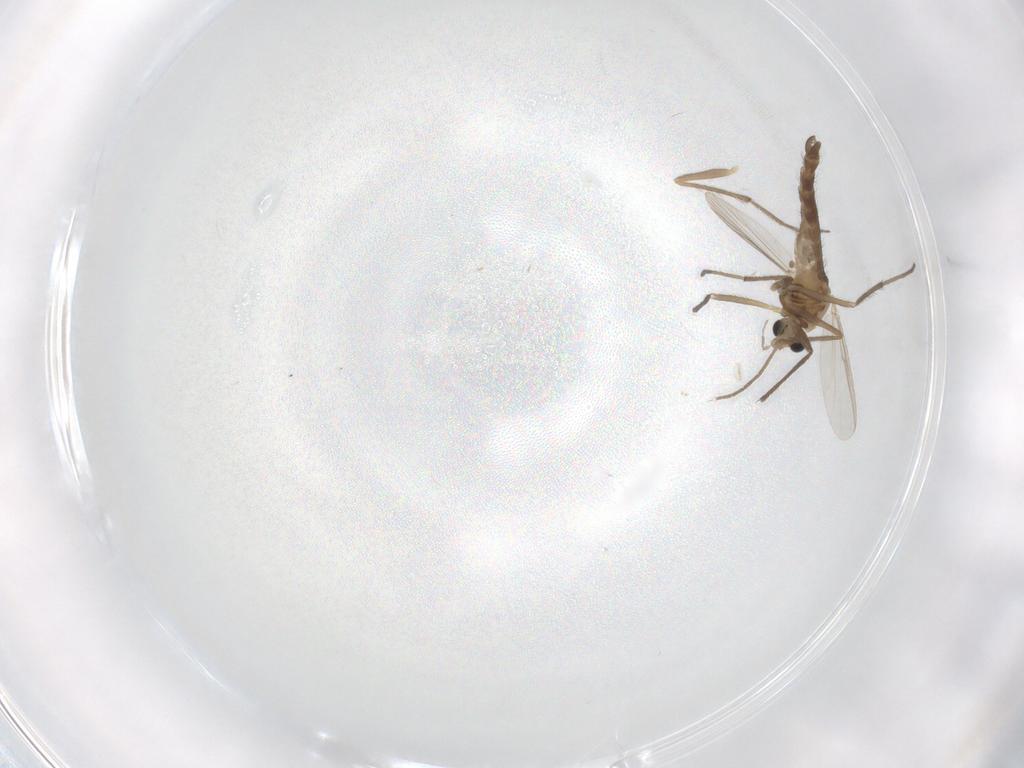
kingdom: Animalia
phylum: Arthropoda
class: Insecta
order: Diptera
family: Chironomidae
